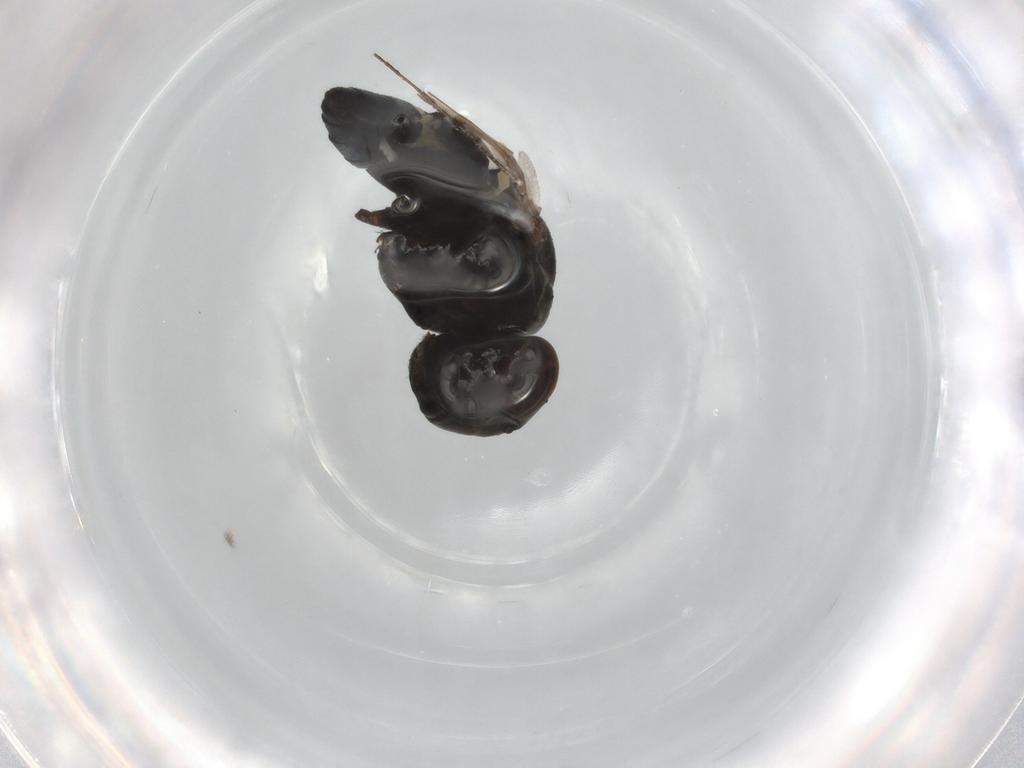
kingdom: Animalia
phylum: Arthropoda
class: Insecta
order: Diptera
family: Ephydridae
